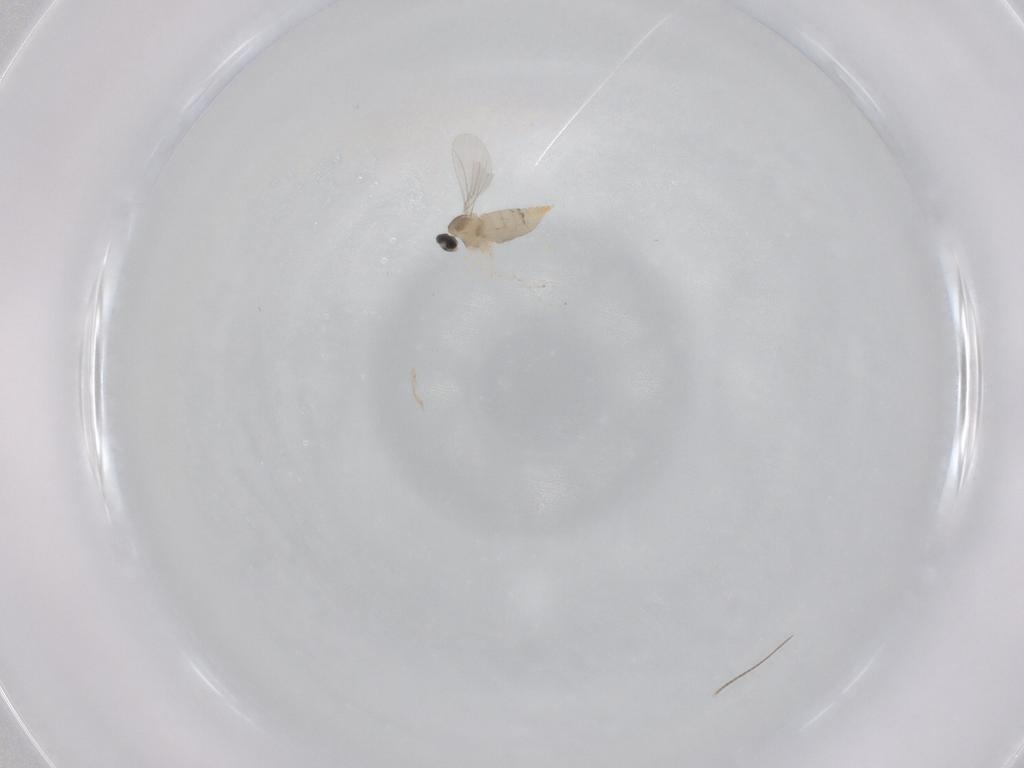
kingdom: Animalia
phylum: Arthropoda
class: Insecta
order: Diptera
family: Cecidomyiidae
